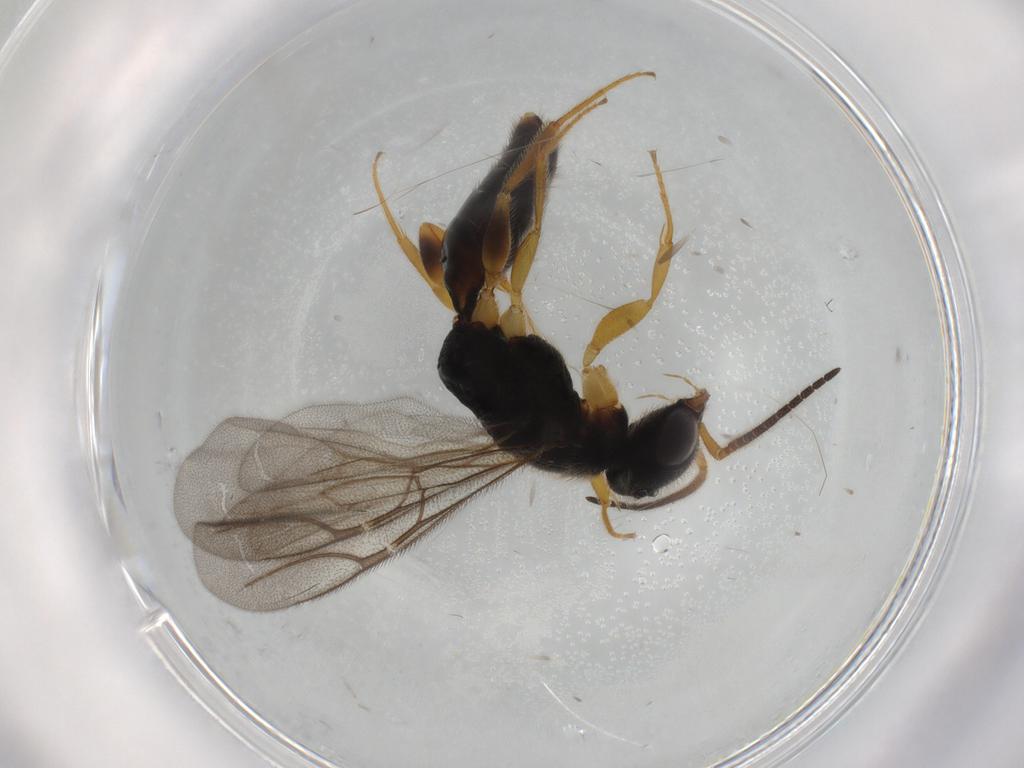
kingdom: Animalia
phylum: Arthropoda
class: Insecta
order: Hymenoptera
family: Bethylidae
